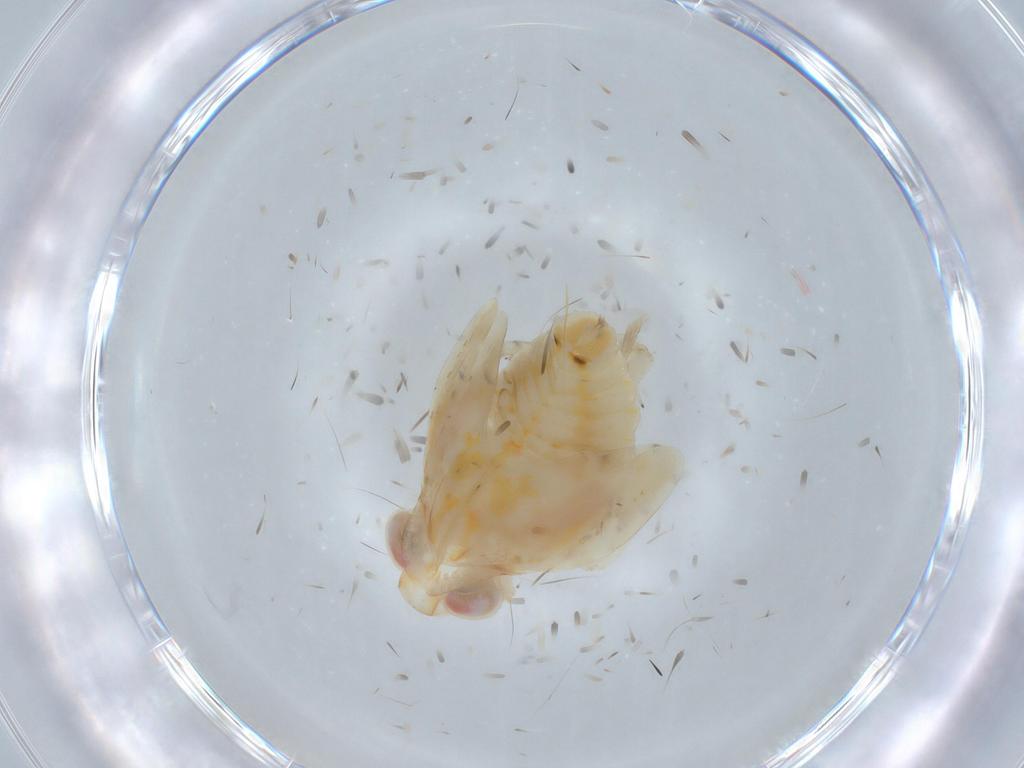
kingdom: Animalia
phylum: Arthropoda
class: Insecta
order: Hemiptera
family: Nogodinidae
